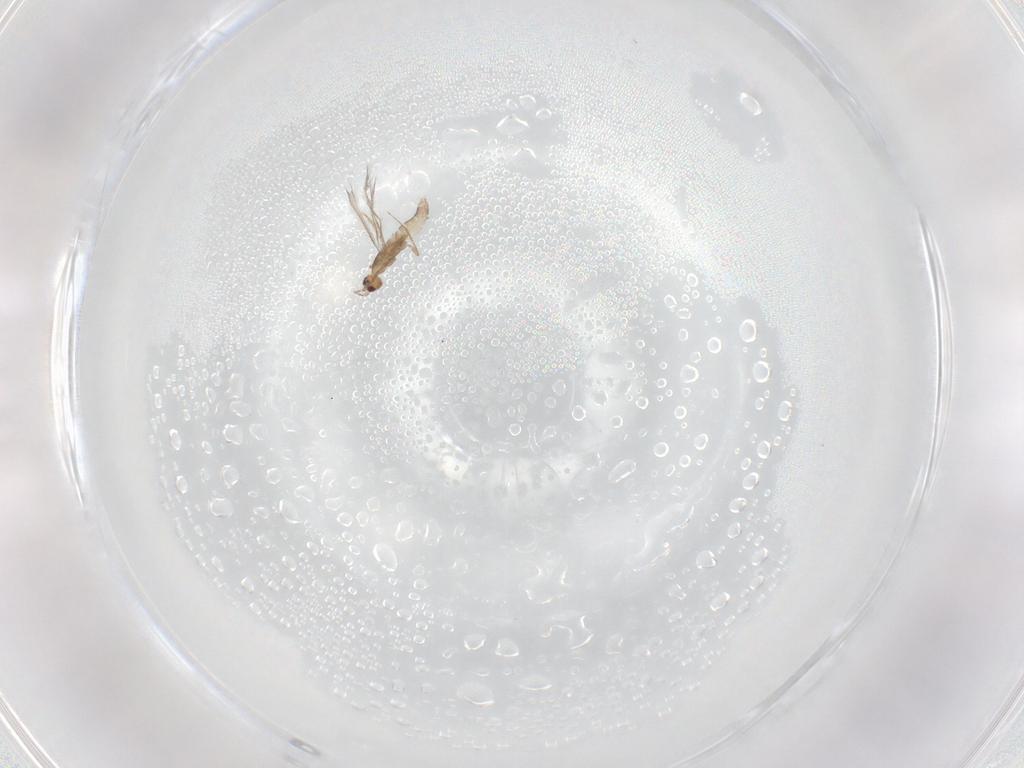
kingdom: Animalia
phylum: Arthropoda
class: Insecta
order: Hymenoptera
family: Mymaridae
